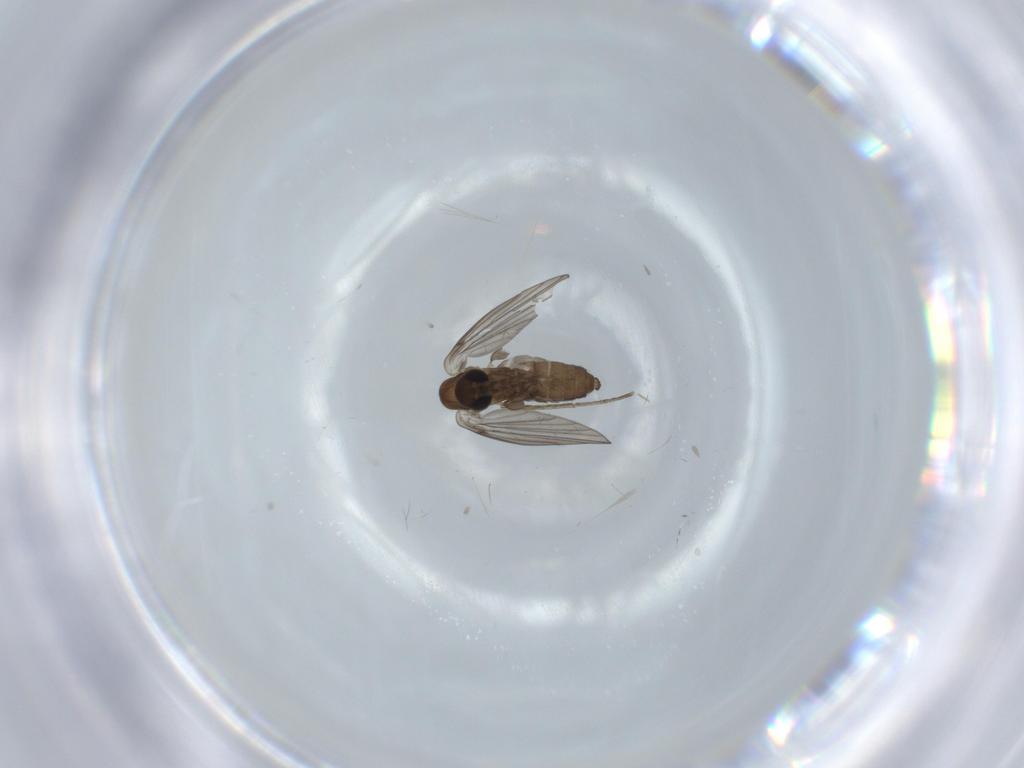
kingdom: Animalia
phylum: Arthropoda
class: Insecta
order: Diptera
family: Psychodidae
